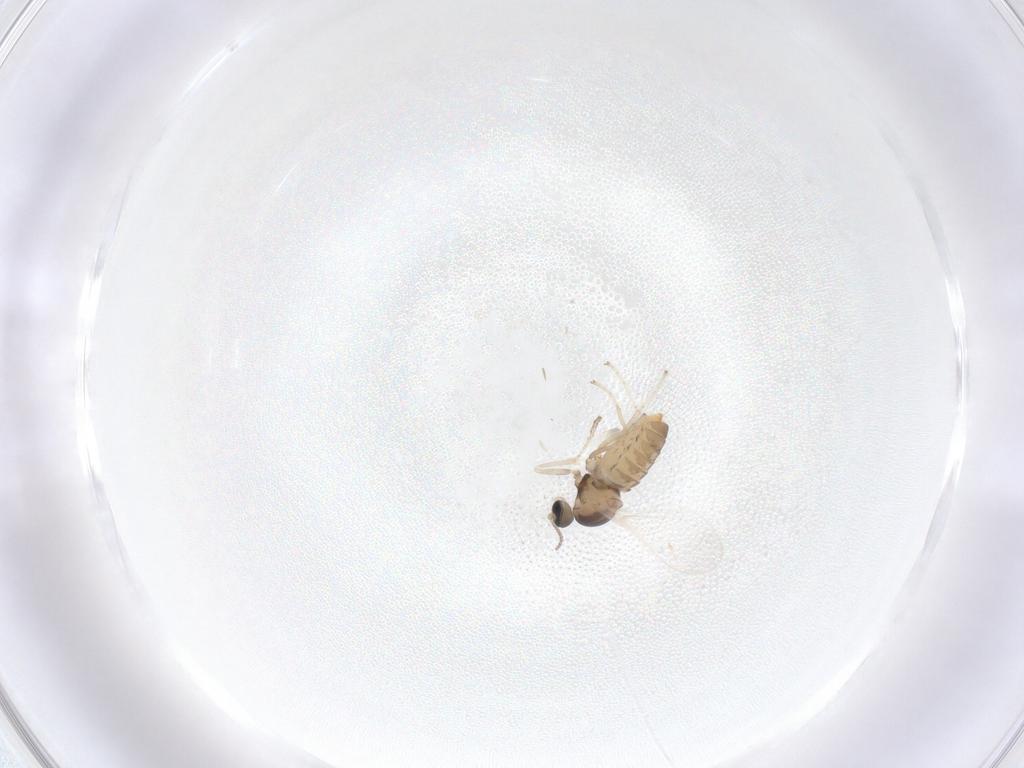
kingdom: Animalia
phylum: Arthropoda
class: Insecta
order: Diptera
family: Cecidomyiidae
